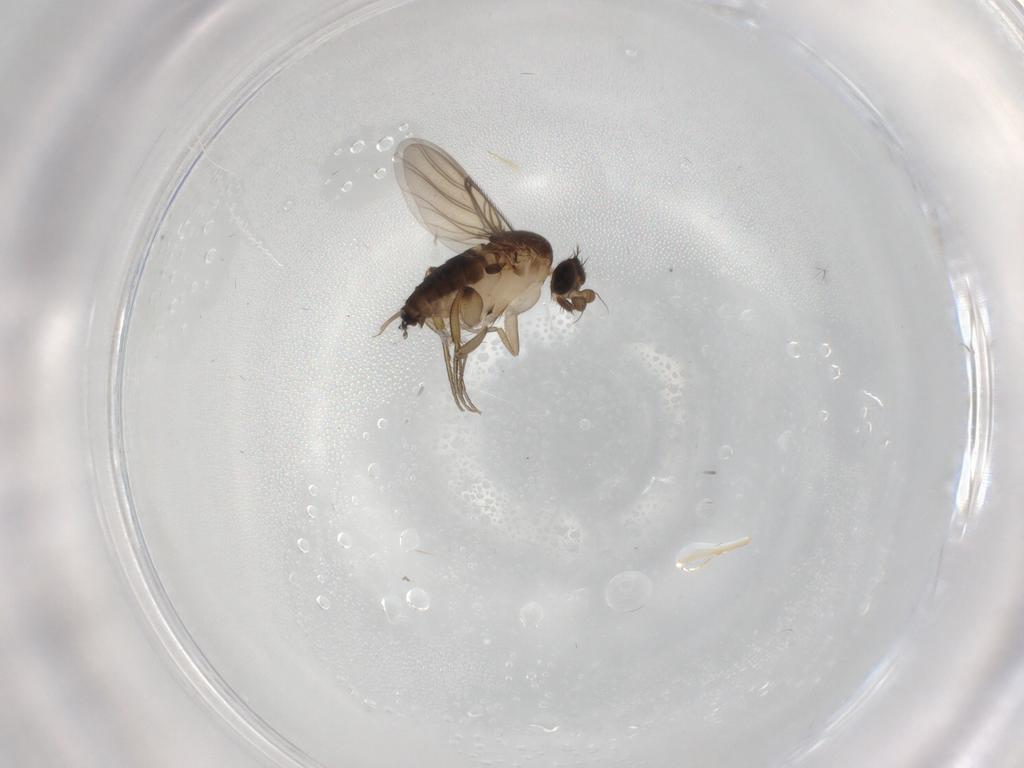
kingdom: Animalia
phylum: Arthropoda
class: Insecta
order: Diptera
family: Phoridae
